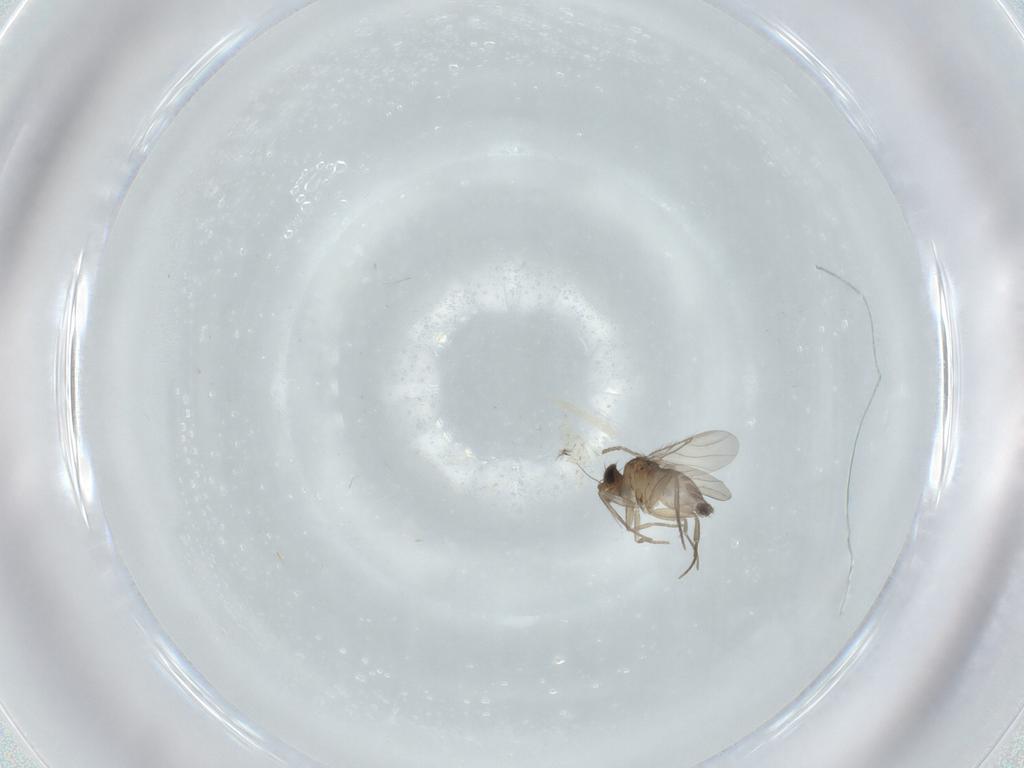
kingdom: Animalia
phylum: Arthropoda
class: Insecta
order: Diptera
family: Phoridae
